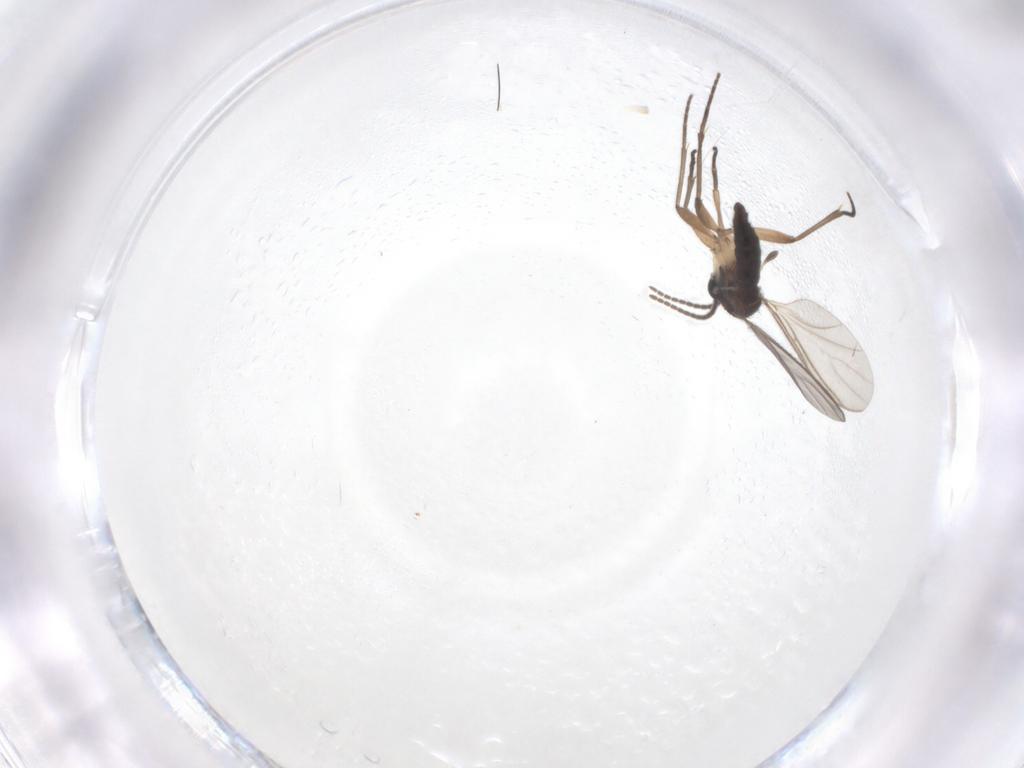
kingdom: Animalia
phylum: Arthropoda
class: Insecta
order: Diptera
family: Sciaridae
